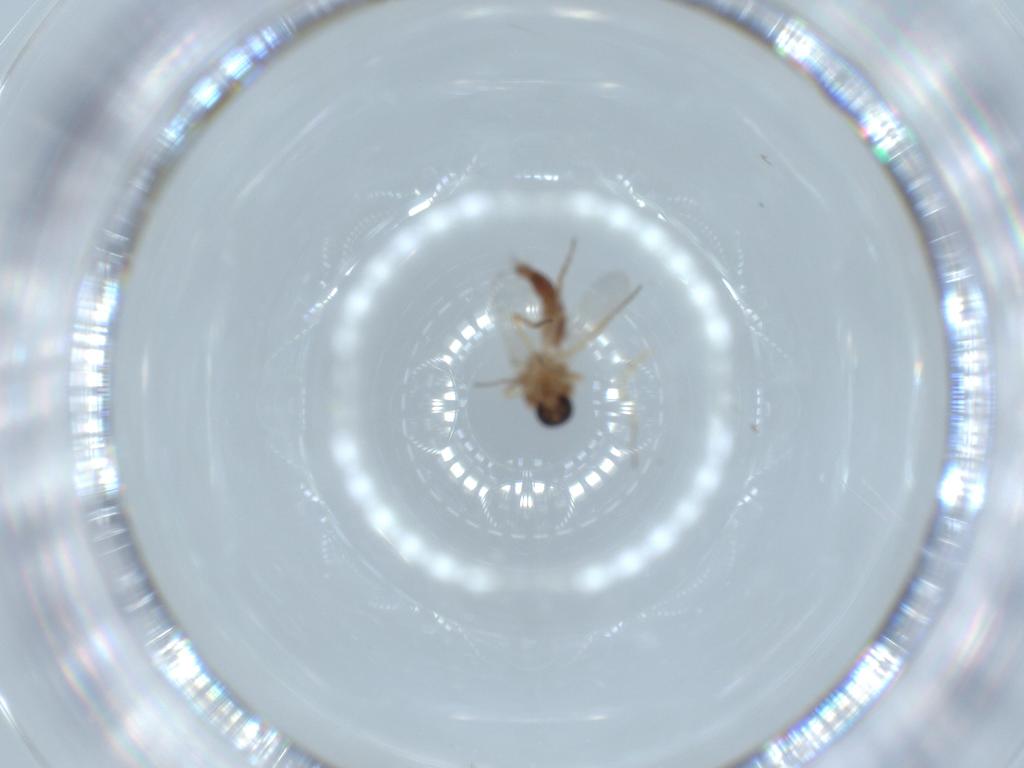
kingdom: Animalia
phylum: Arthropoda
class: Insecta
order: Diptera
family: Ceratopogonidae
